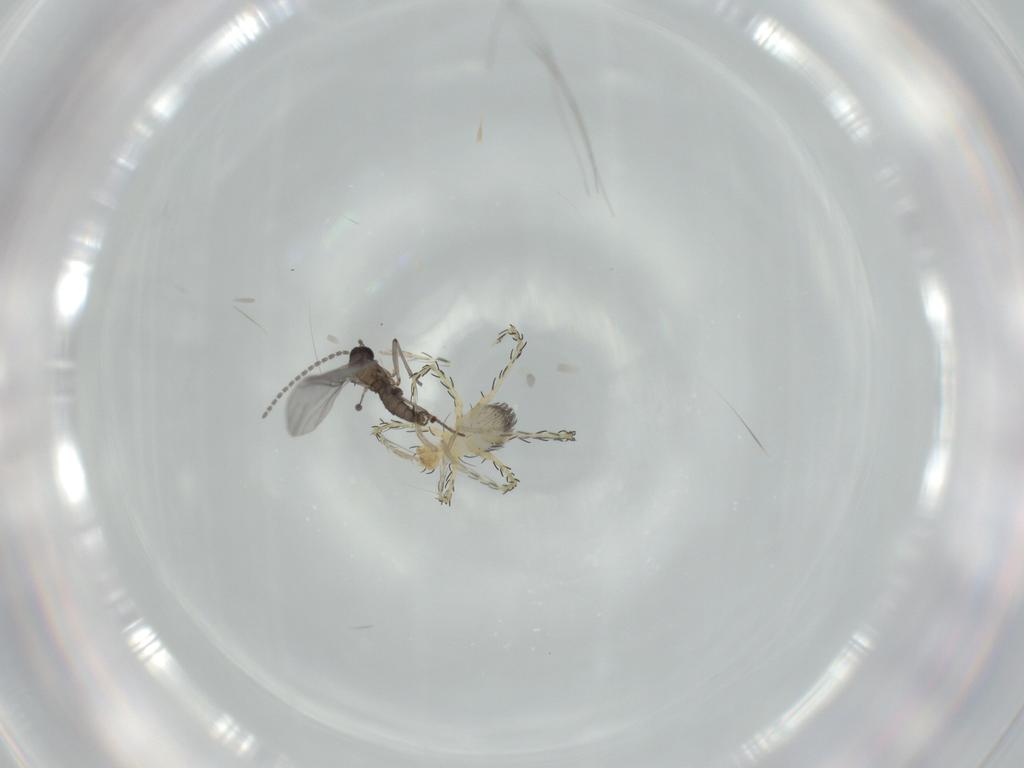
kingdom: Animalia
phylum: Arthropoda
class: Arachnida
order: Trombidiformes
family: Erythraeidae
